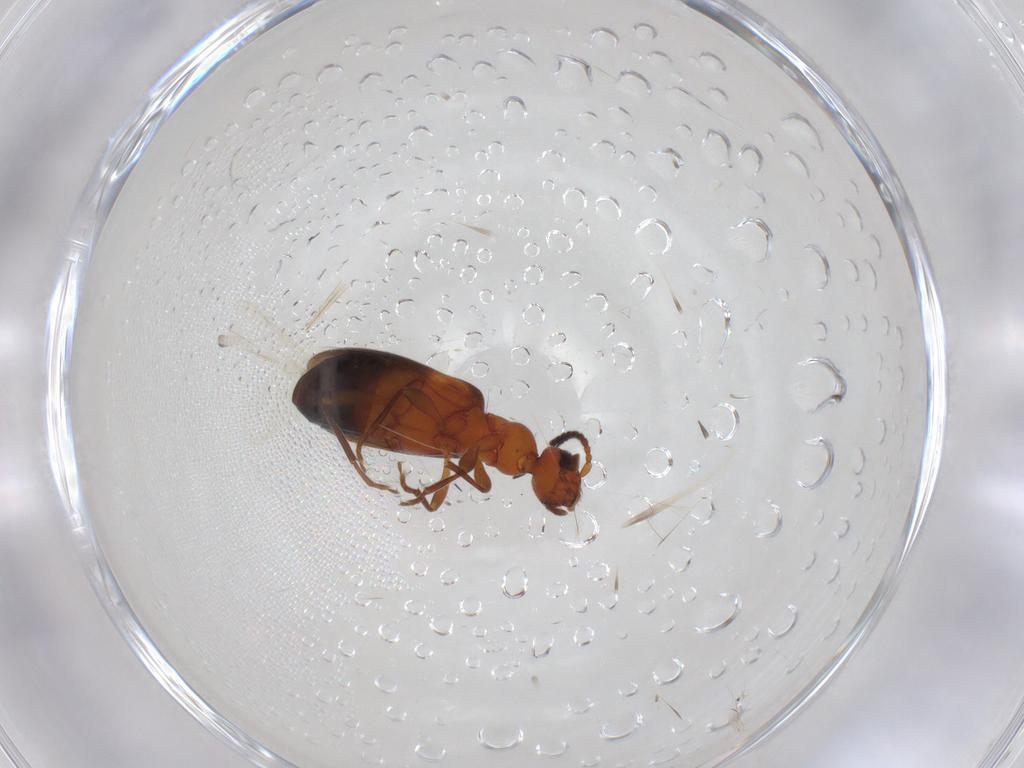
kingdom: Animalia
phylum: Arthropoda
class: Insecta
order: Coleoptera
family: Anthicidae
